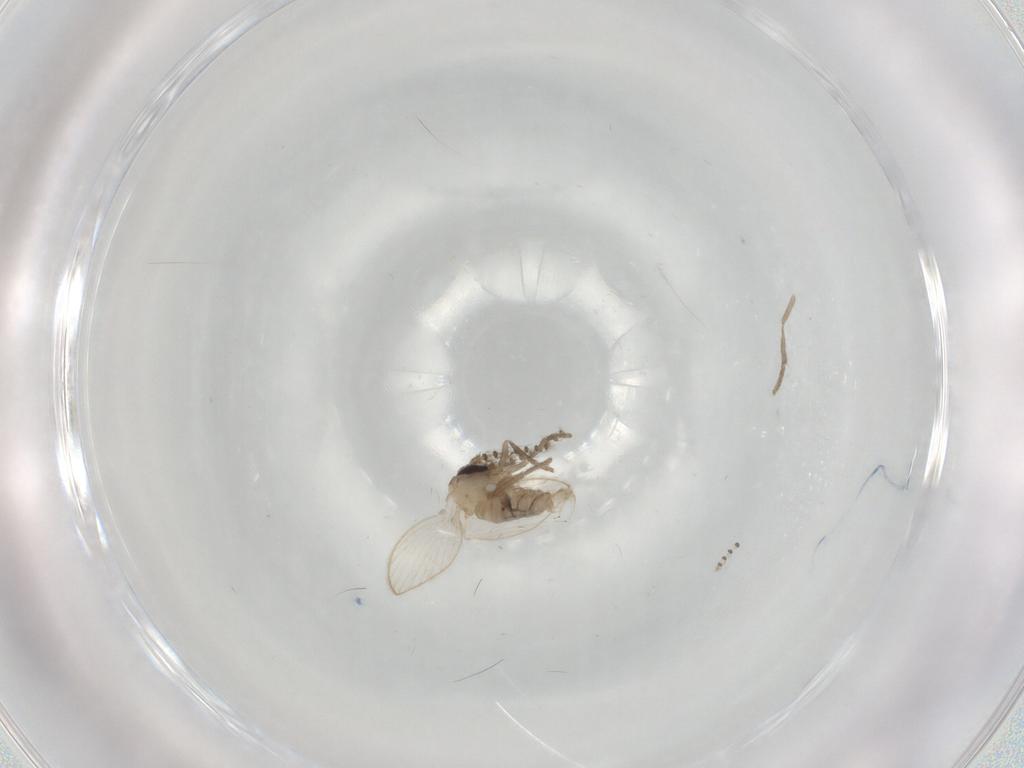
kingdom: Animalia
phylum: Arthropoda
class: Insecta
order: Diptera
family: Psychodidae
